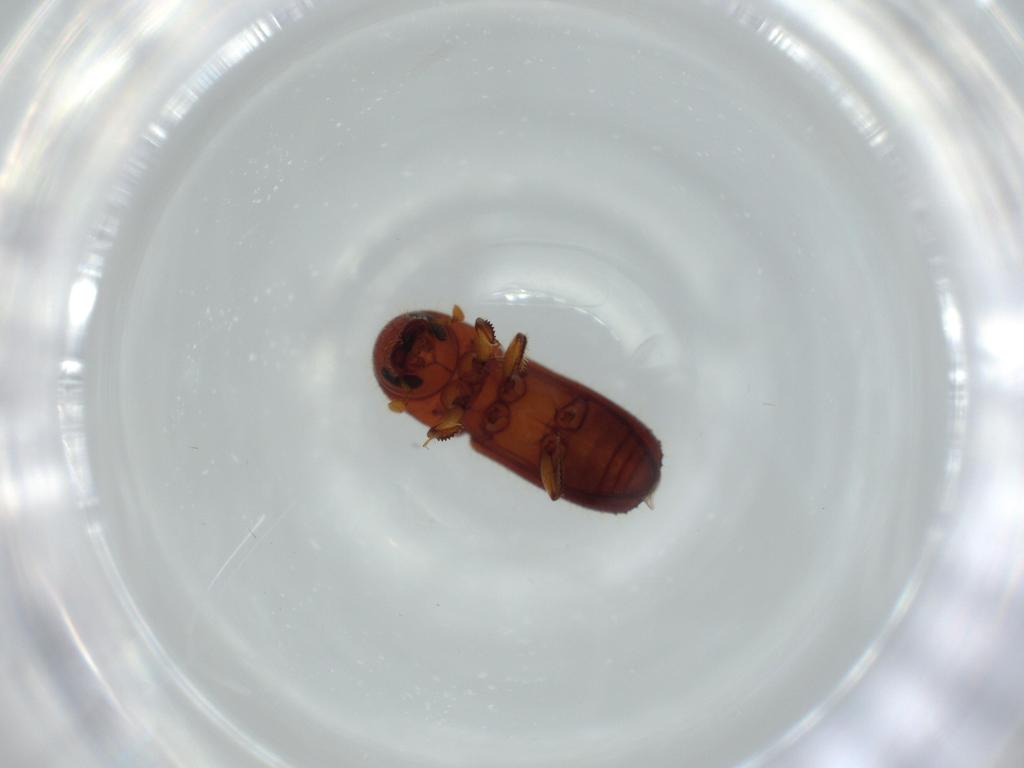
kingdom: Animalia
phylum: Arthropoda
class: Insecta
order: Coleoptera
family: Curculionidae
